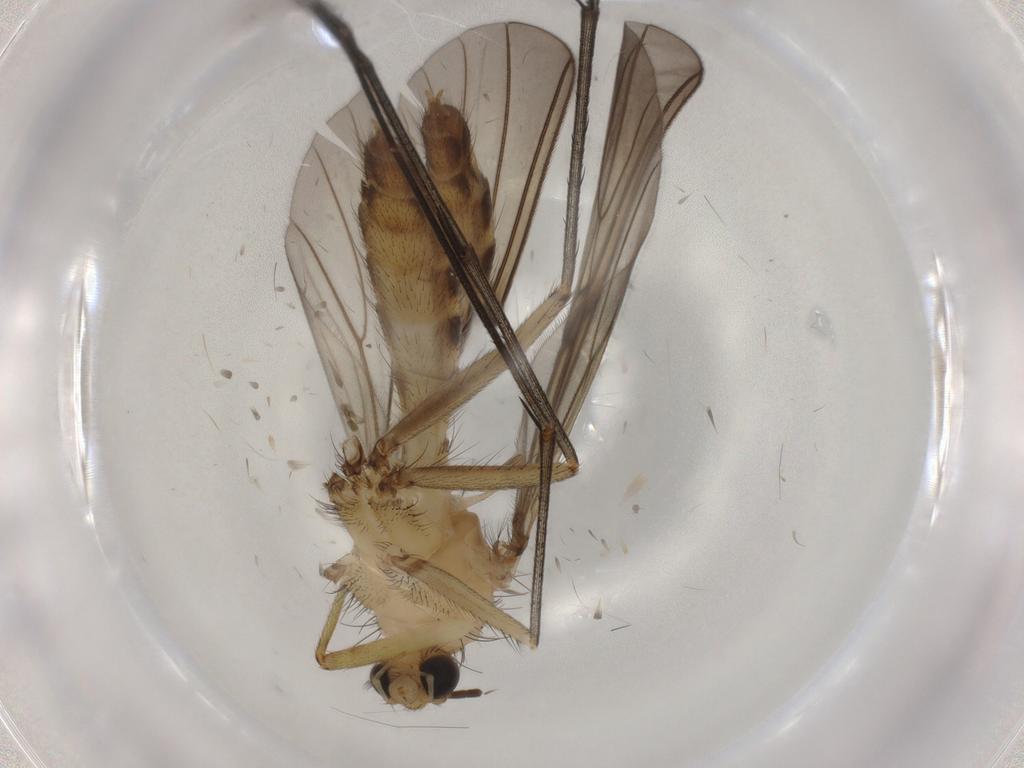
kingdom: Animalia
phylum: Arthropoda
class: Insecta
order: Diptera
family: Mycetophilidae
